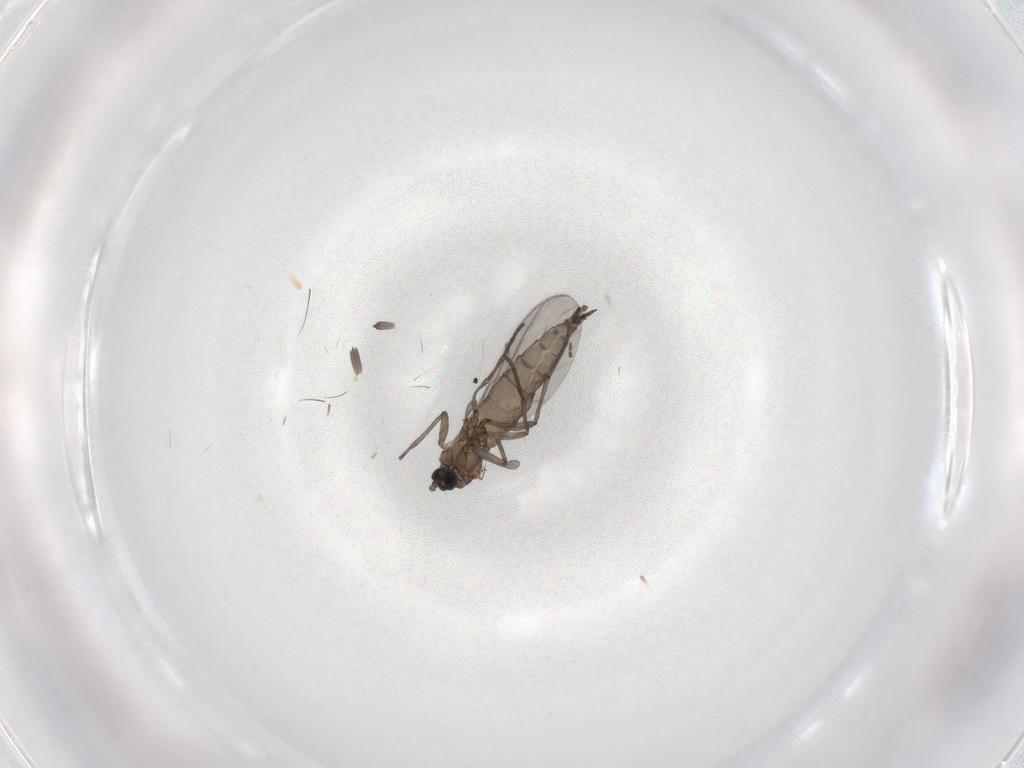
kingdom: Animalia
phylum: Arthropoda
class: Insecta
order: Diptera
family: Sciaridae
